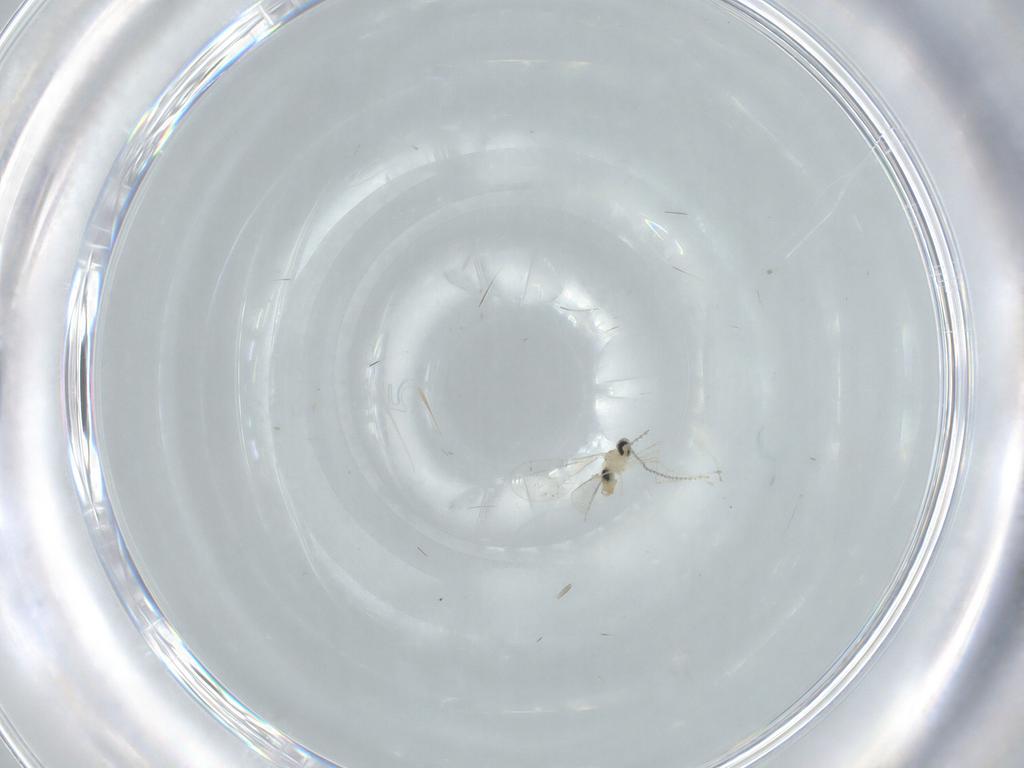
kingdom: Animalia
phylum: Arthropoda
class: Insecta
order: Diptera
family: Cecidomyiidae
